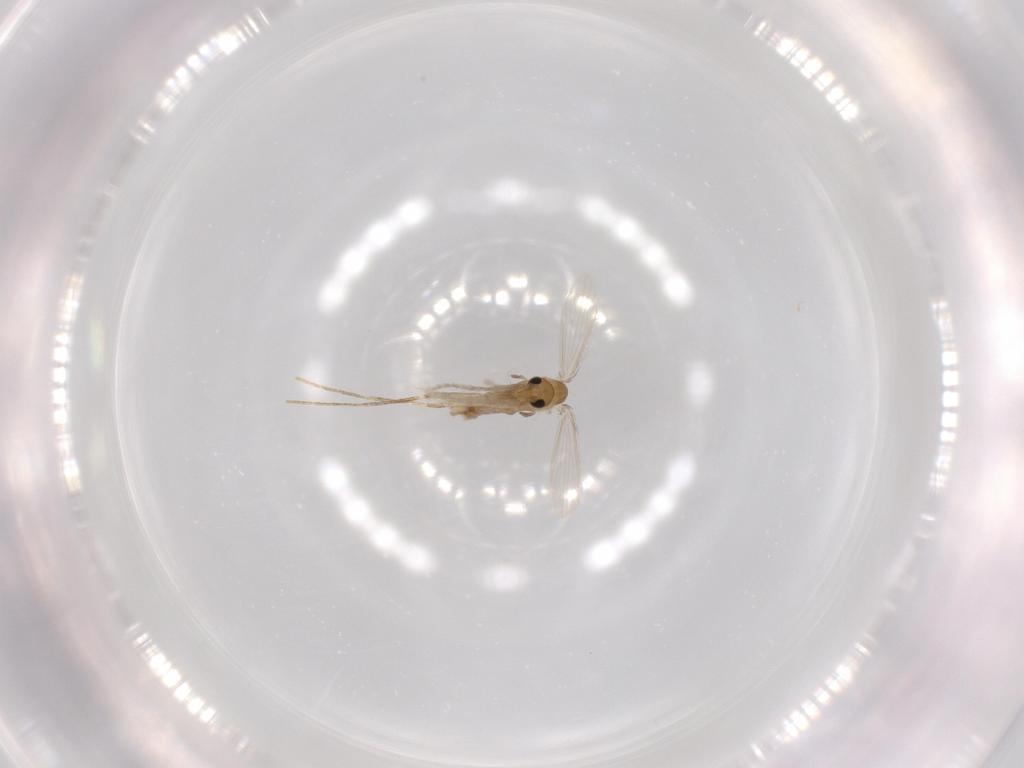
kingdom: Animalia
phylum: Arthropoda
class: Insecta
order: Diptera
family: Psychodidae
